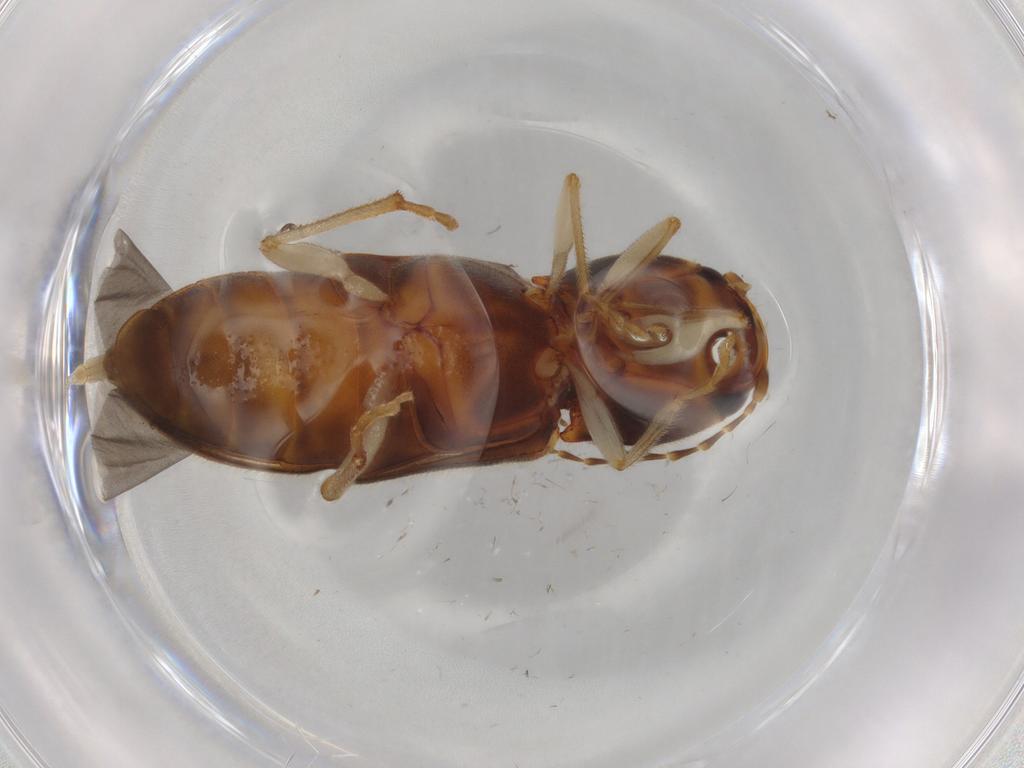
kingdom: Animalia
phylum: Arthropoda
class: Insecta
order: Coleoptera
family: Elateridae
